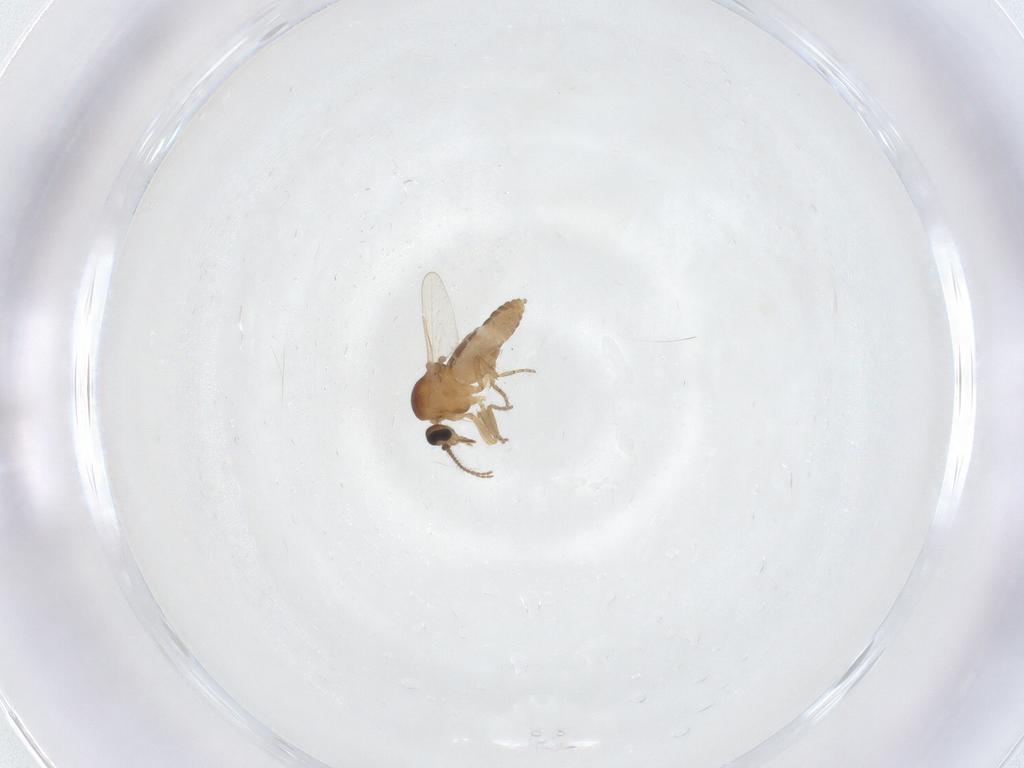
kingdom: Animalia
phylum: Arthropoda
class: Insecta
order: Diptera
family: Ceratopogonidae
